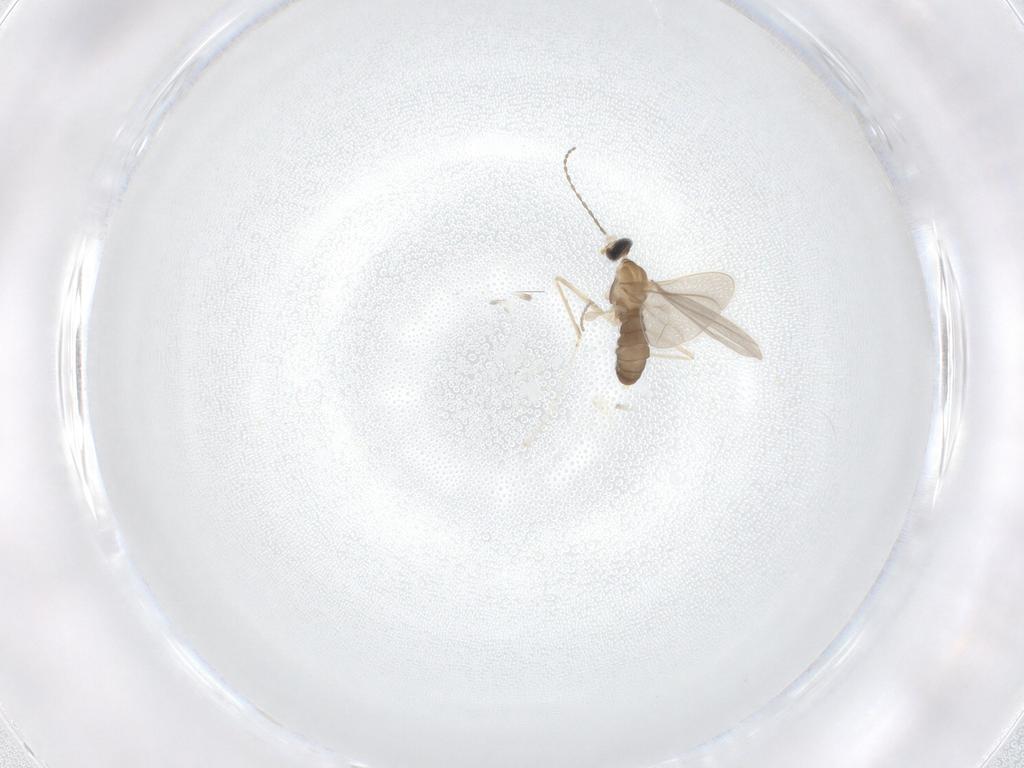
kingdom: Animalia
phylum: Arthropoda
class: Insecta
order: Diptera
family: Cecidomyiidae
